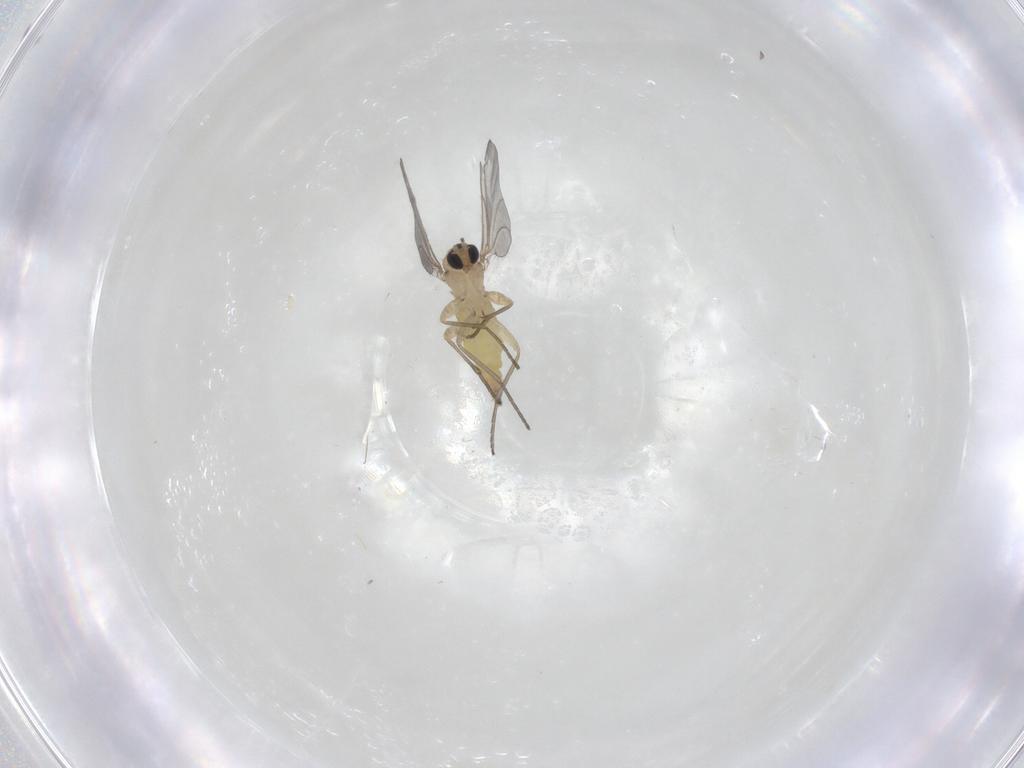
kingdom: Animalia
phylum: Arthropoda
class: Insecta
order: Diptera
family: Sciaridae
